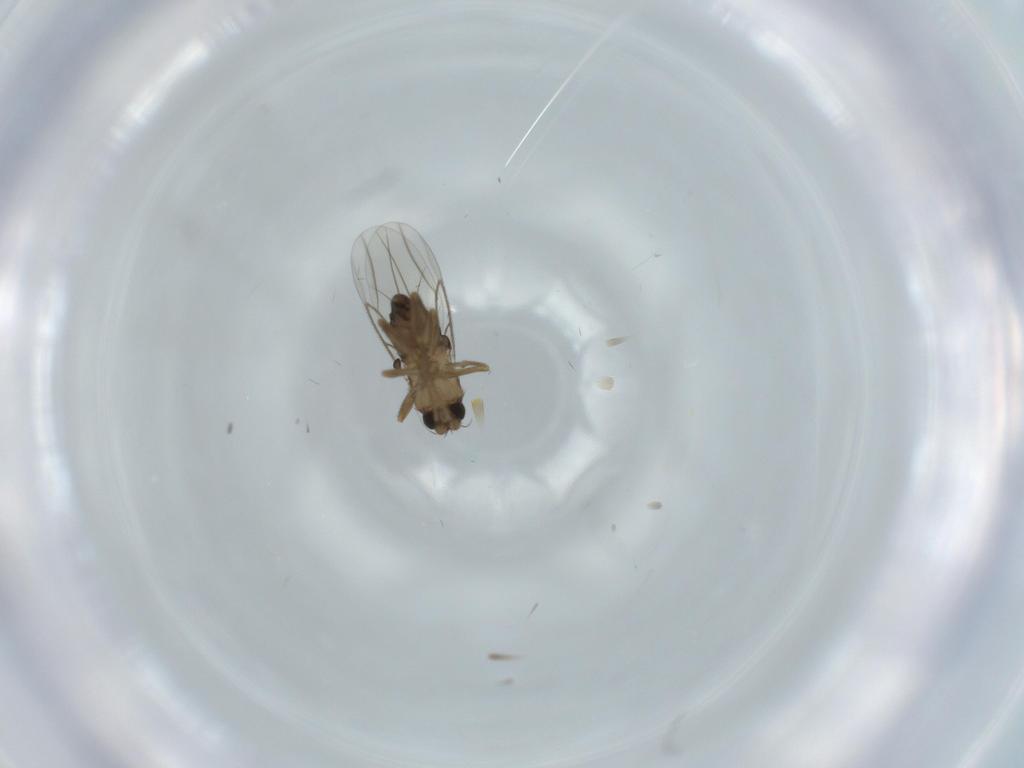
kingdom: Animalia
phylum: Arthropoda
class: Insecta
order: Diptera
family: Phoridae
